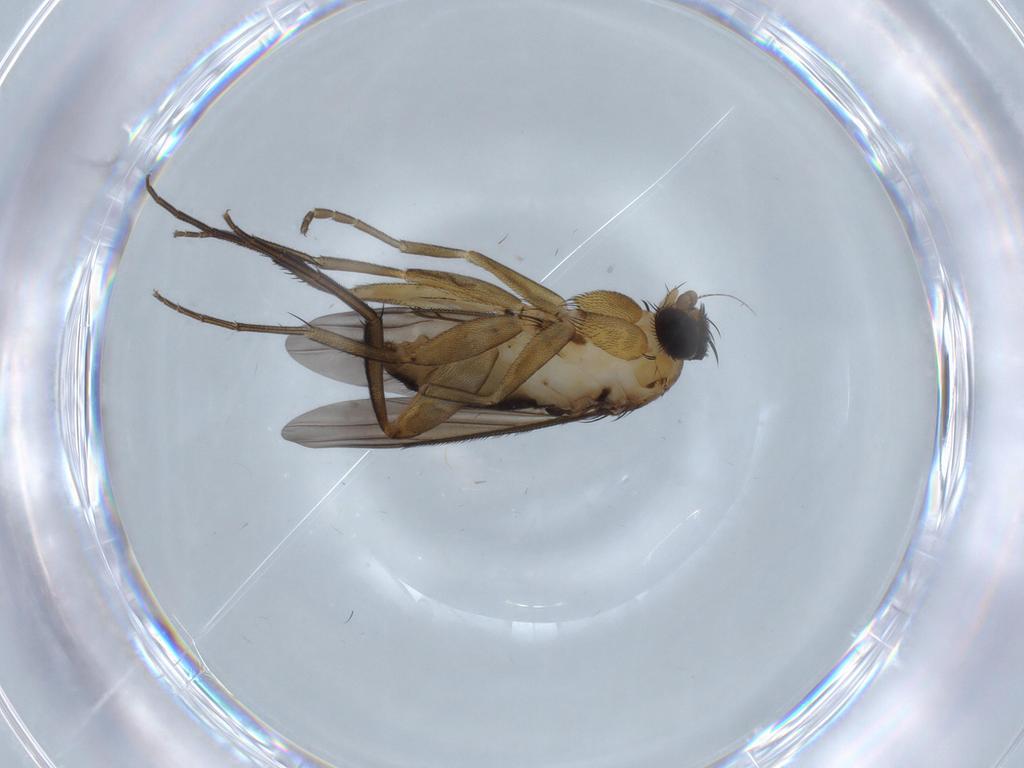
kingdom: Animalia
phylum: Arthropoda
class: Insecta
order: Diptera
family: Phoridae
